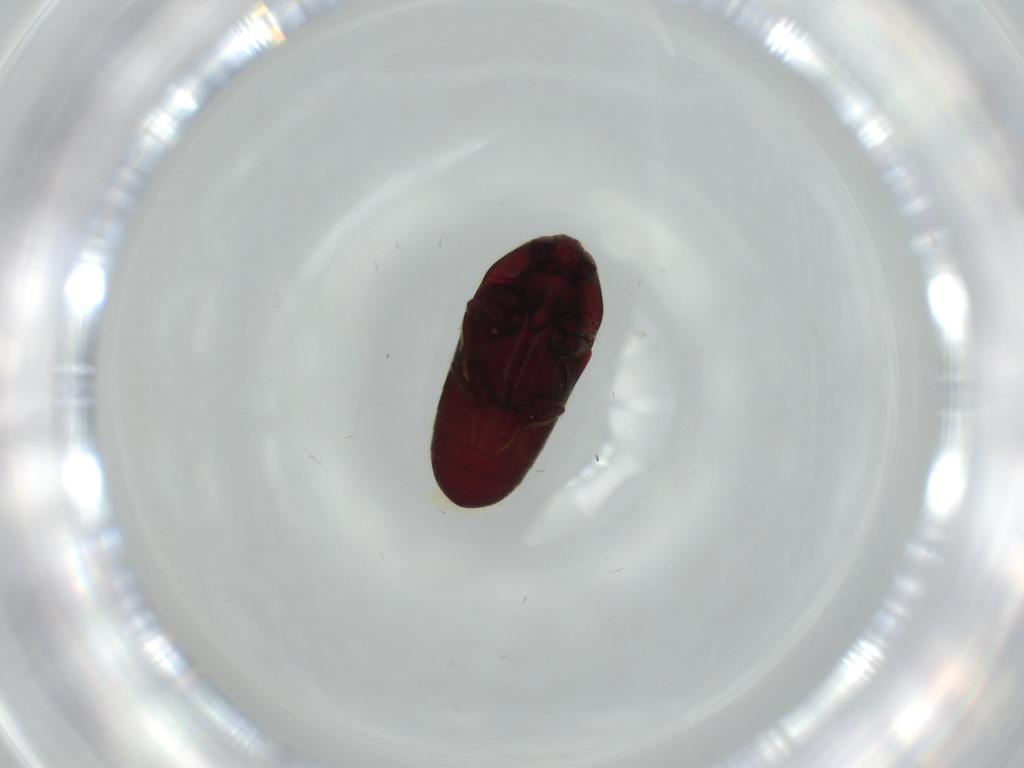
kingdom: Animalia
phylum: Arthropoda
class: Insecta
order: Coleoptera
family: Throscidae
